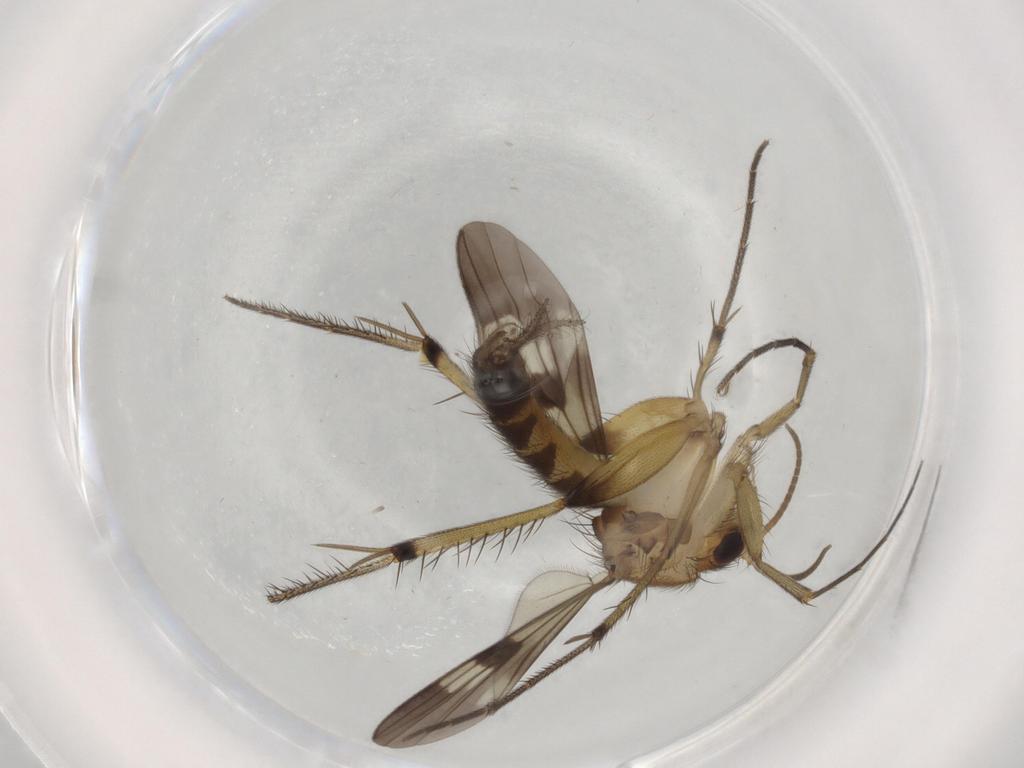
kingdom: Animalia
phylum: Arthropoda
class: Insecta
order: Diptera
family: Mycetophilidae
